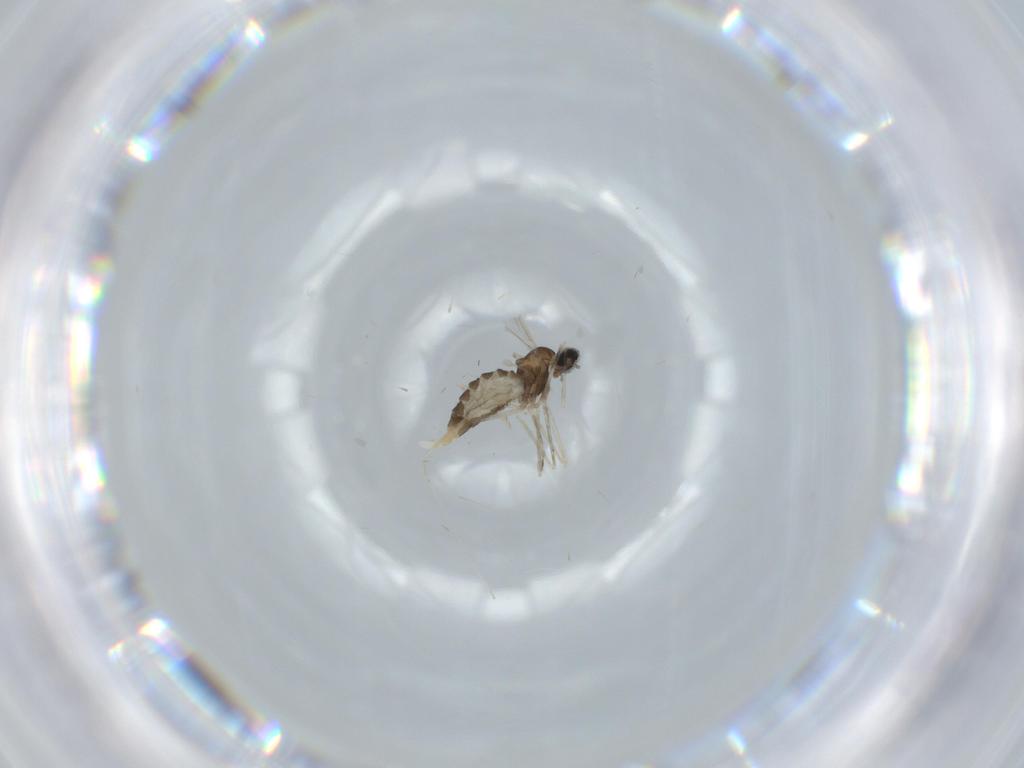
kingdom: Animalia
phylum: Arthropoda
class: Insecta
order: Diptera
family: Cecidomyiidae
